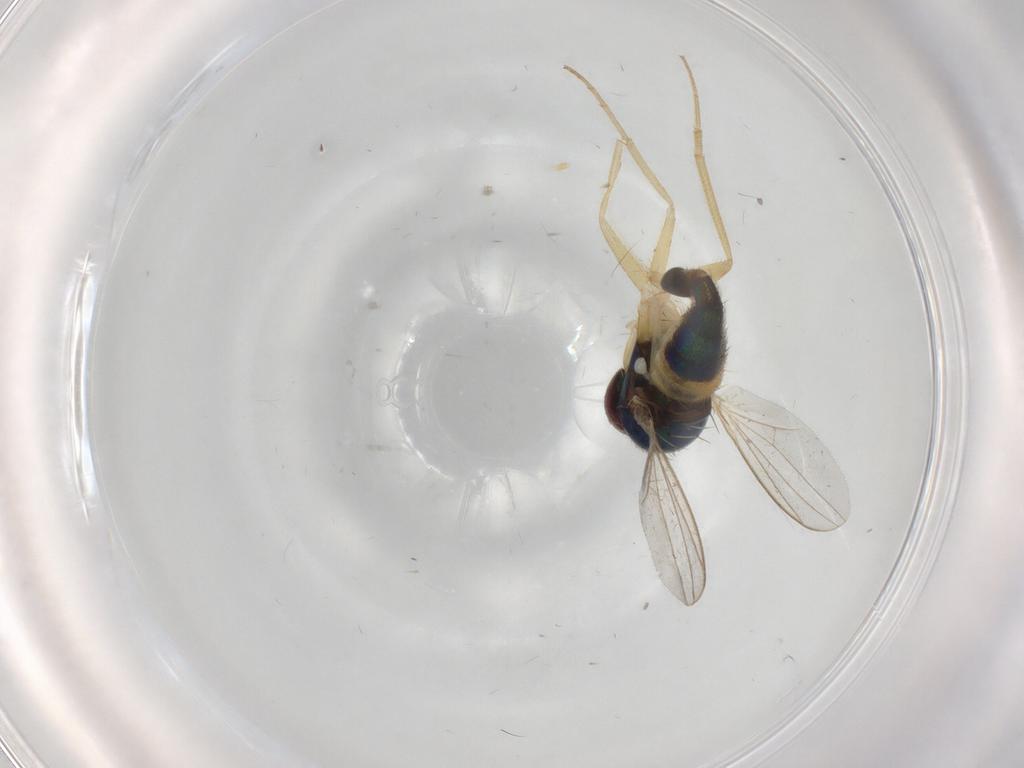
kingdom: Animalia
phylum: Arthropoda
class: Insecta
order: Diptera
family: Dolichopodidae
